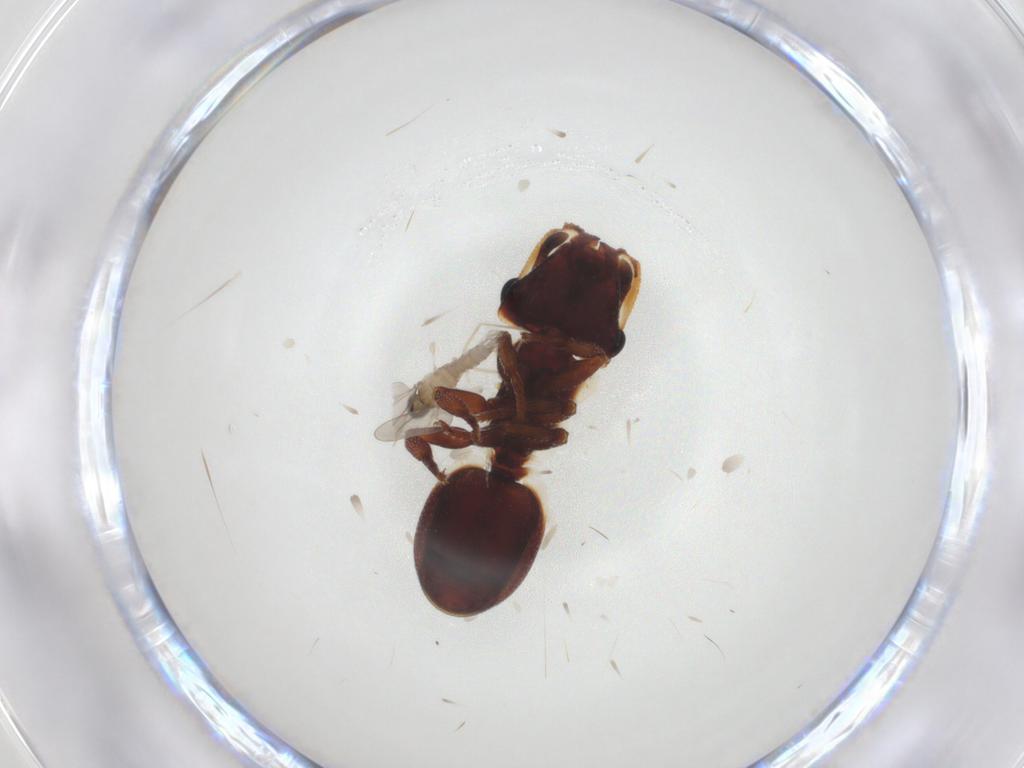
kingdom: Animalia
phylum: Arthropoda
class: Insecta
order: Diptera
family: Cecidomyiidae
